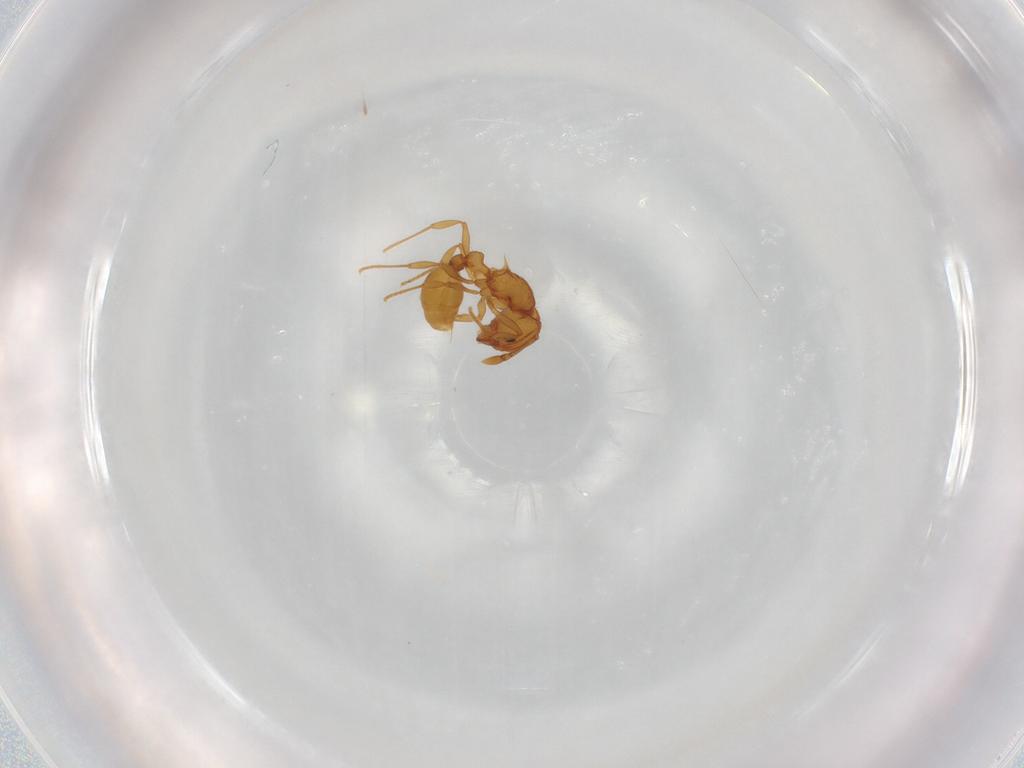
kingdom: Animalia
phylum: Arthropoda
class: Insecta
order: Hymenoptera
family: Formicidae
